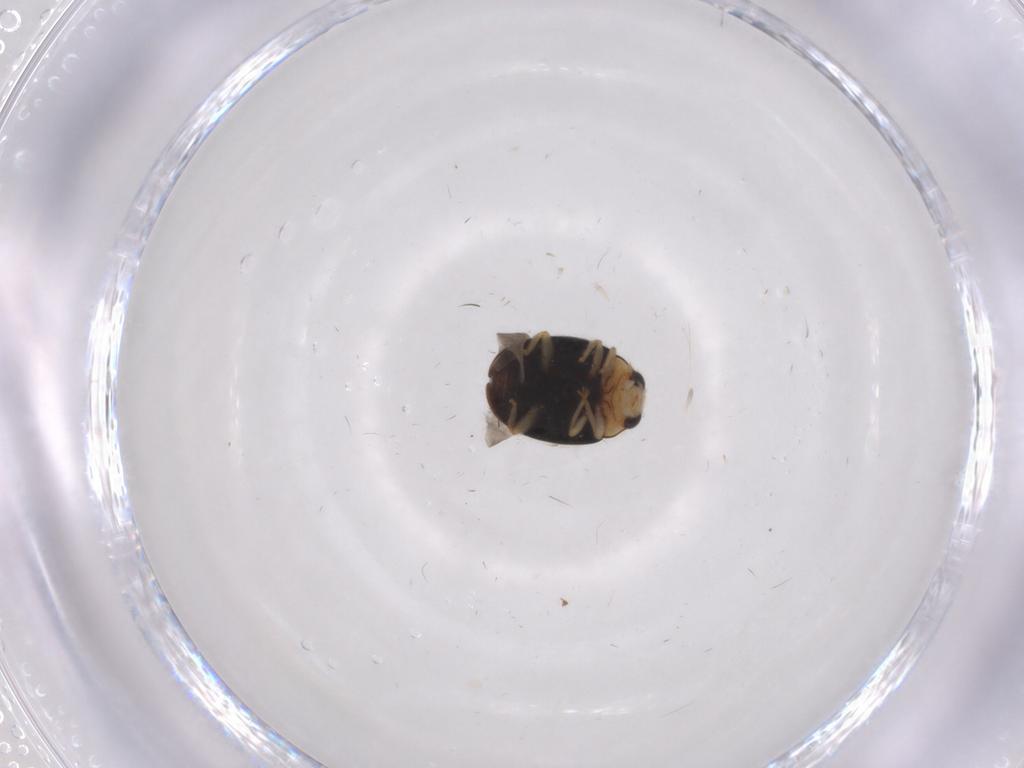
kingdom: Animalia
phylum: Arthropoda
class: Insecta
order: Coleoptera
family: Coccinellidae
